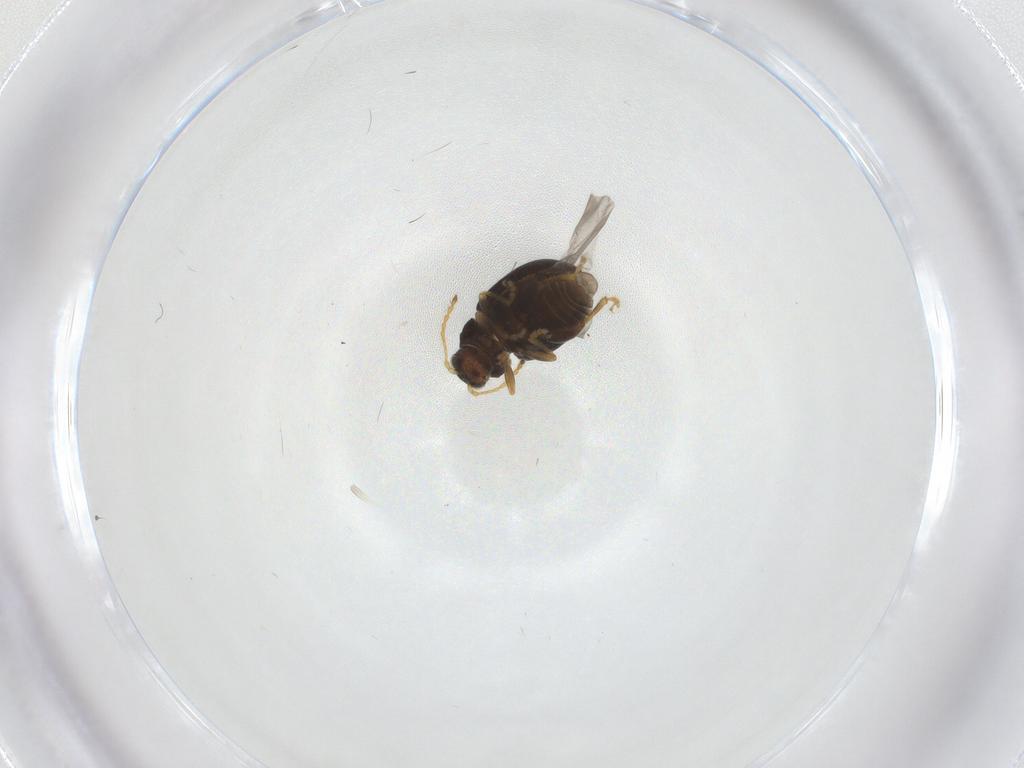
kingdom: Animalia
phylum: Arthropoda
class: Insecta
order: Coleoptera
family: Chrysomelidae
